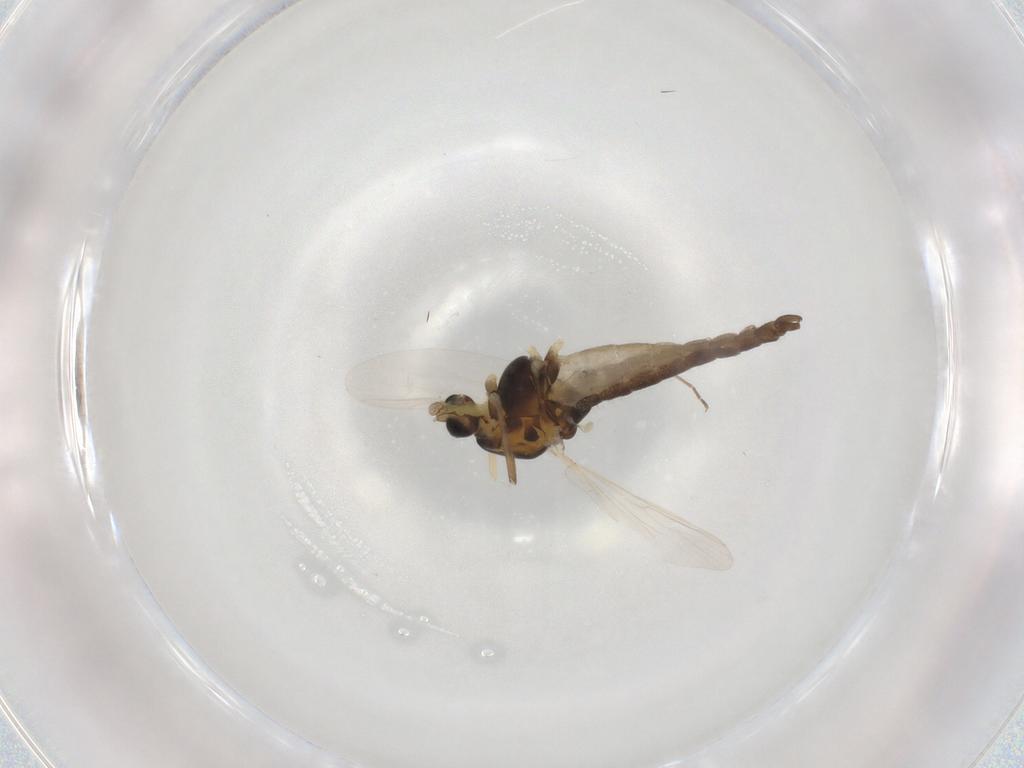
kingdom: Animalia
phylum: Arthropoda
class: Insecta
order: Diptera
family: Chironomidae
